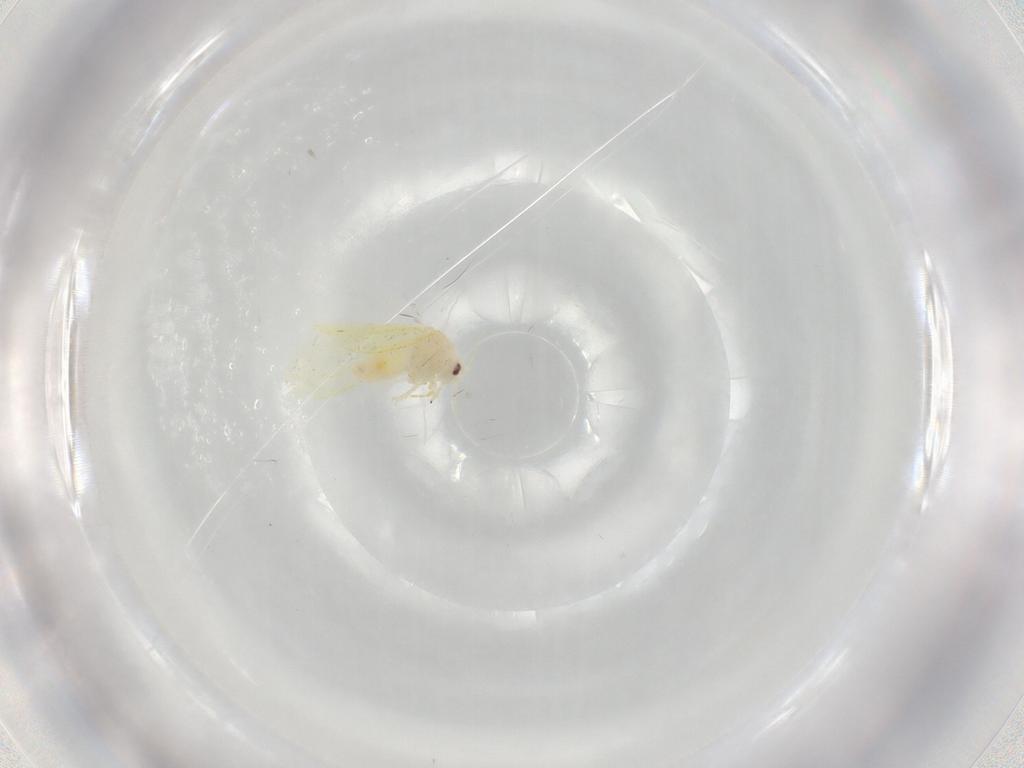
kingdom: Animalia
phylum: Arthropoda
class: Insecta
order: Hemiptera
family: Aleyrodidae
